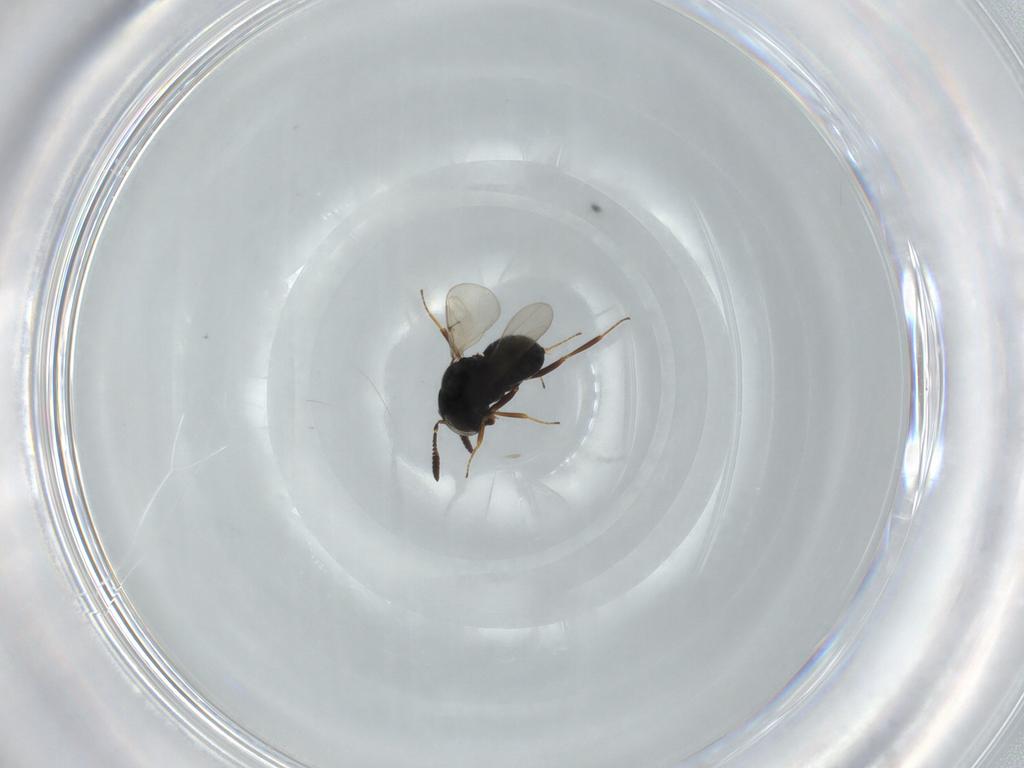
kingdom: Animalia
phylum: Arthropoda
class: Insecta
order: Hymenoptera
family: Scelionidae
